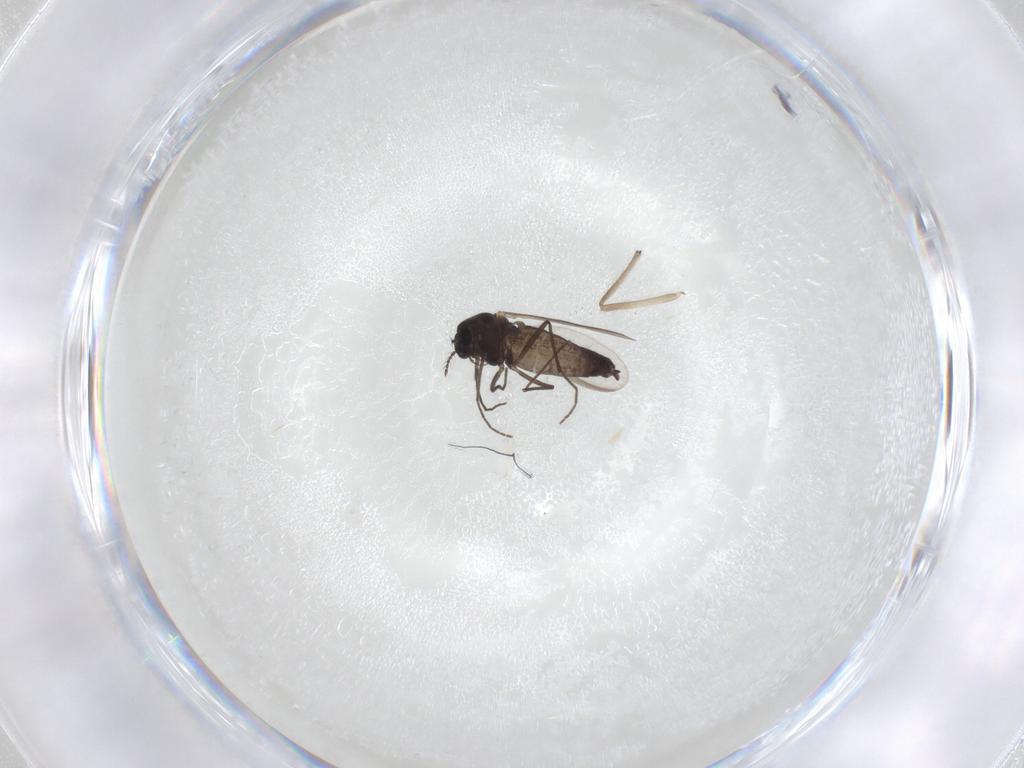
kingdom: Animalia
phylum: Arthropoda
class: Insecta
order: Diptera
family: Chironomidae
